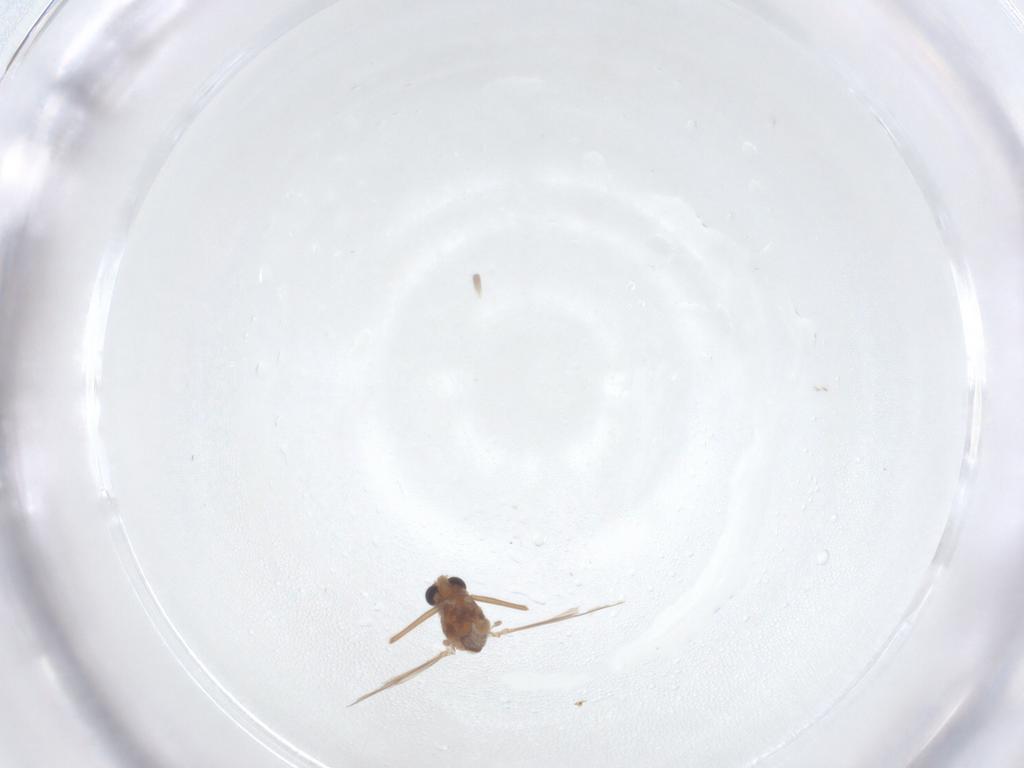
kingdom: Animalia
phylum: Arthropoda
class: Insecta
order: Diptera
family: Chironomidae
